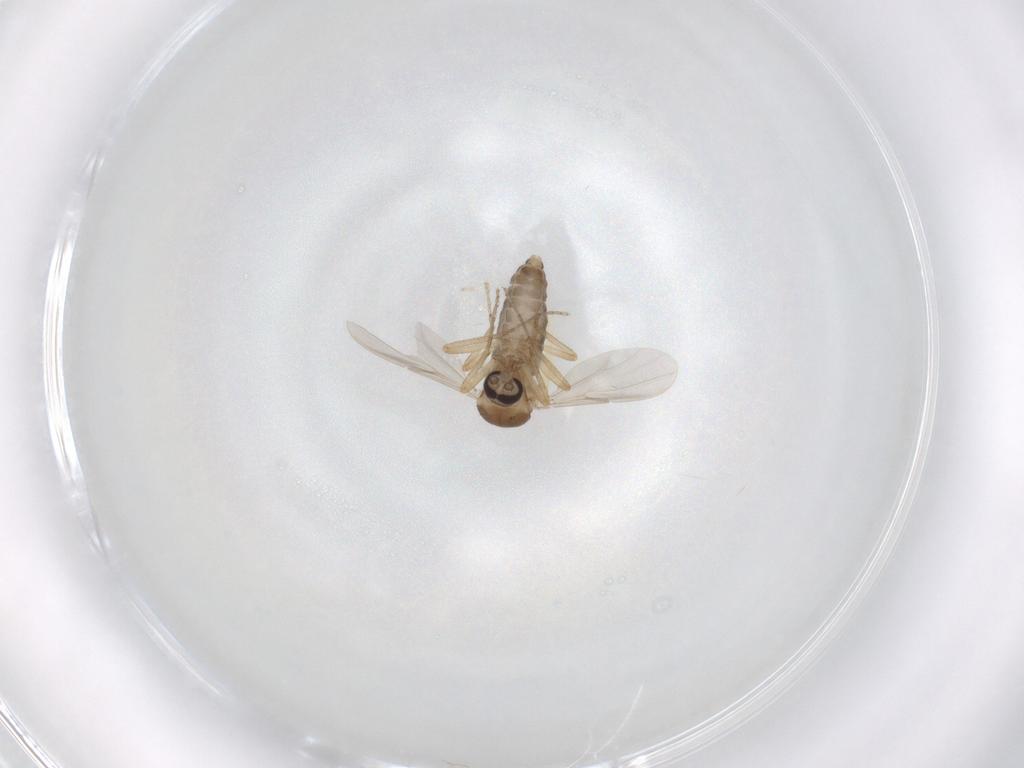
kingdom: Animalia
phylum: Arthropoda
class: Insecta
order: Diptera
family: Ceratopogonidae
